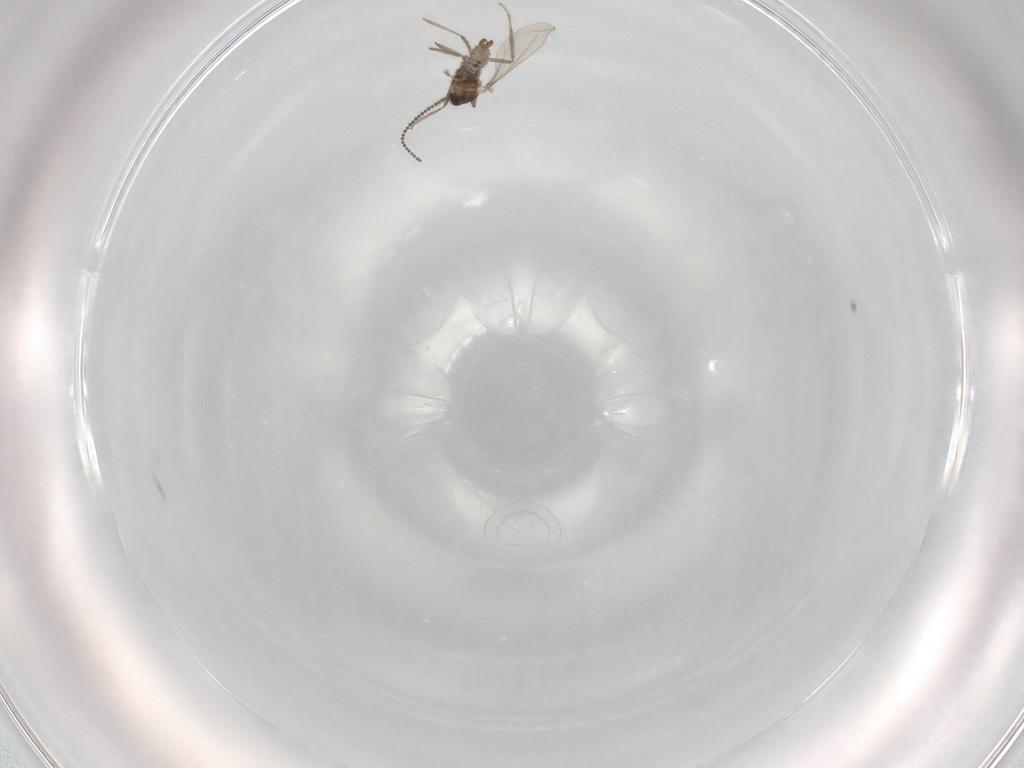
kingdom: Animalia
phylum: Arthropoda
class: Insecta
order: Diptera
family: Cecidomyiidae
